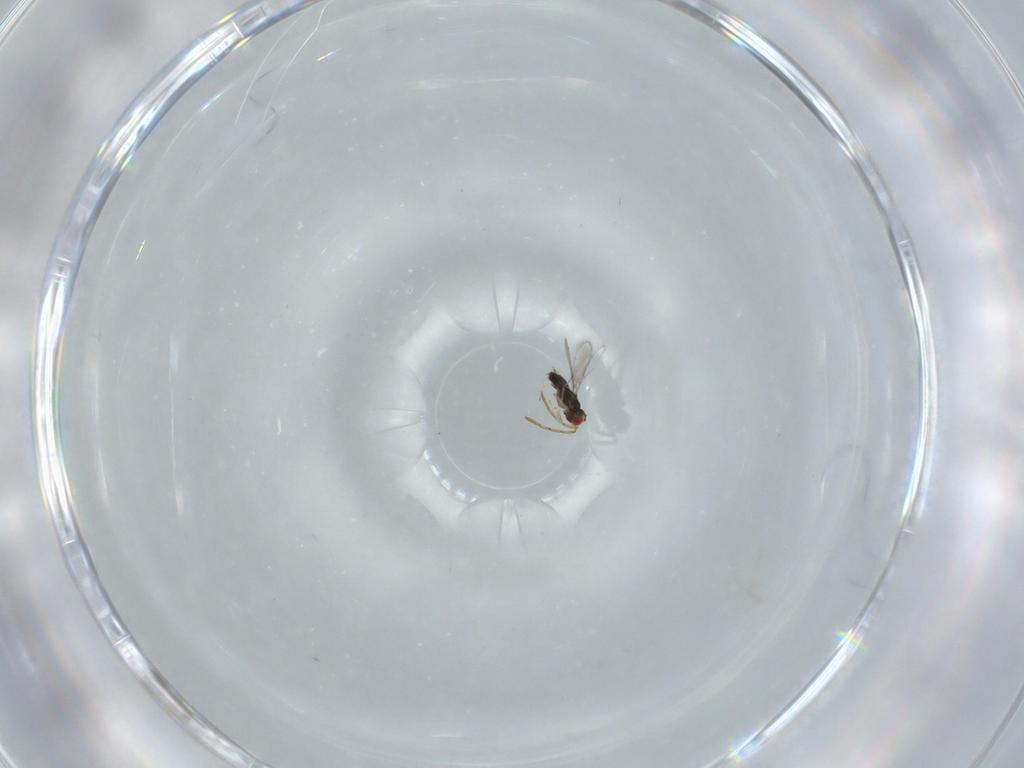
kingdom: Animalia
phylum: Arthropoda
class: Insecta
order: Hymenoptera
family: Azotidae
